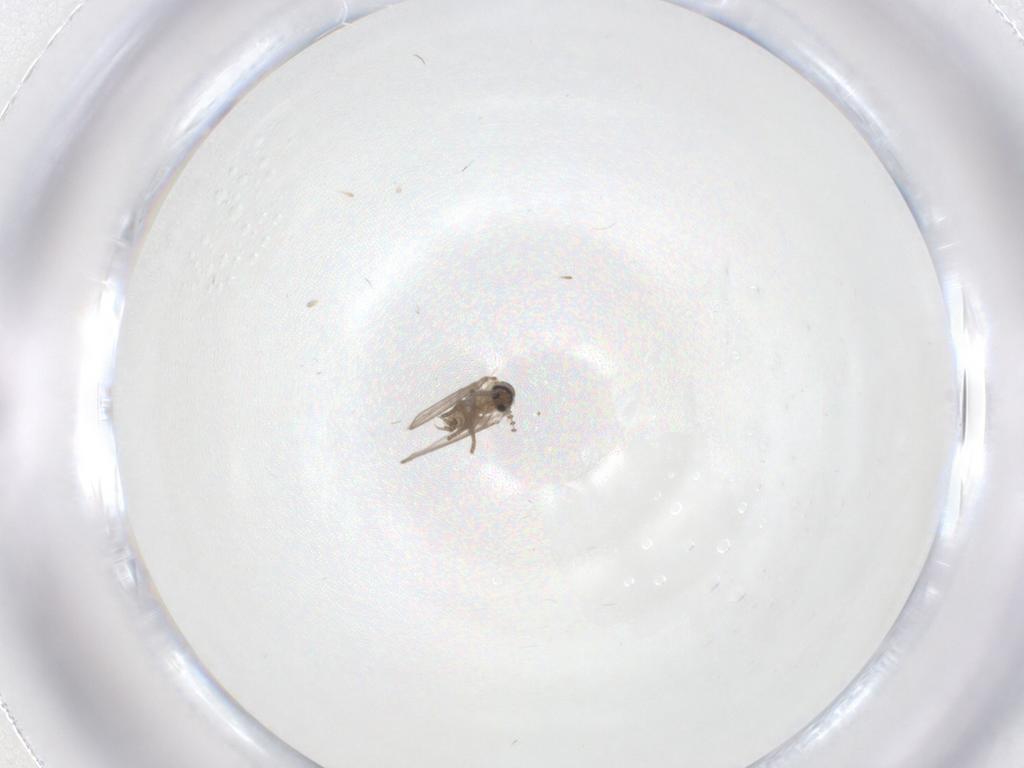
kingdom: Animalia
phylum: Arthropoda
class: Insecta
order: Diptera
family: Psychodidae
